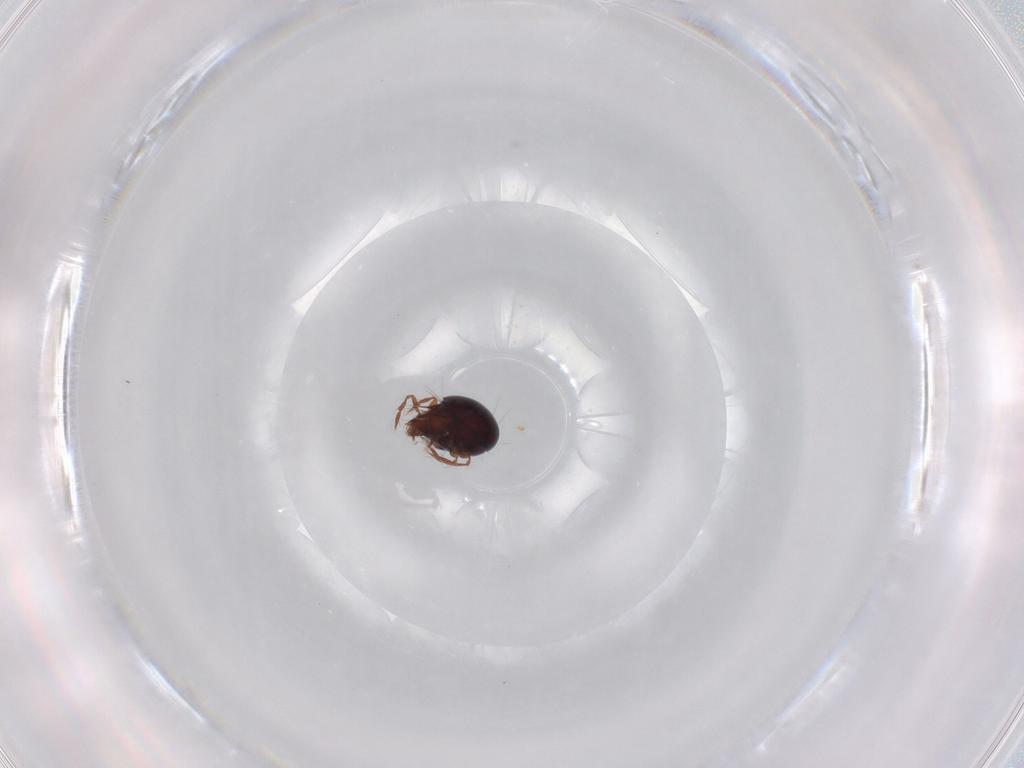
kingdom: Animalia
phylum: Arthropoda
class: Arachnida
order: Sarcoptiformes
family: Ceratoppiidae
